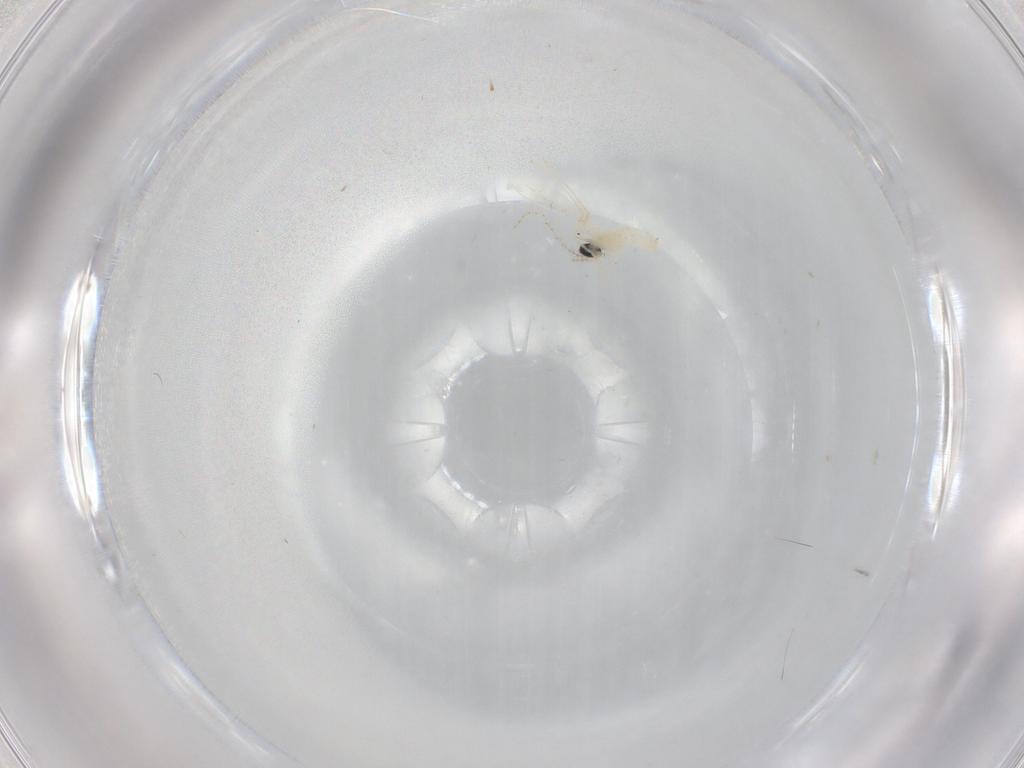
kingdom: Animalia
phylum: Arthropoda
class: Insecta
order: Diptera
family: Cecidomyiidae
